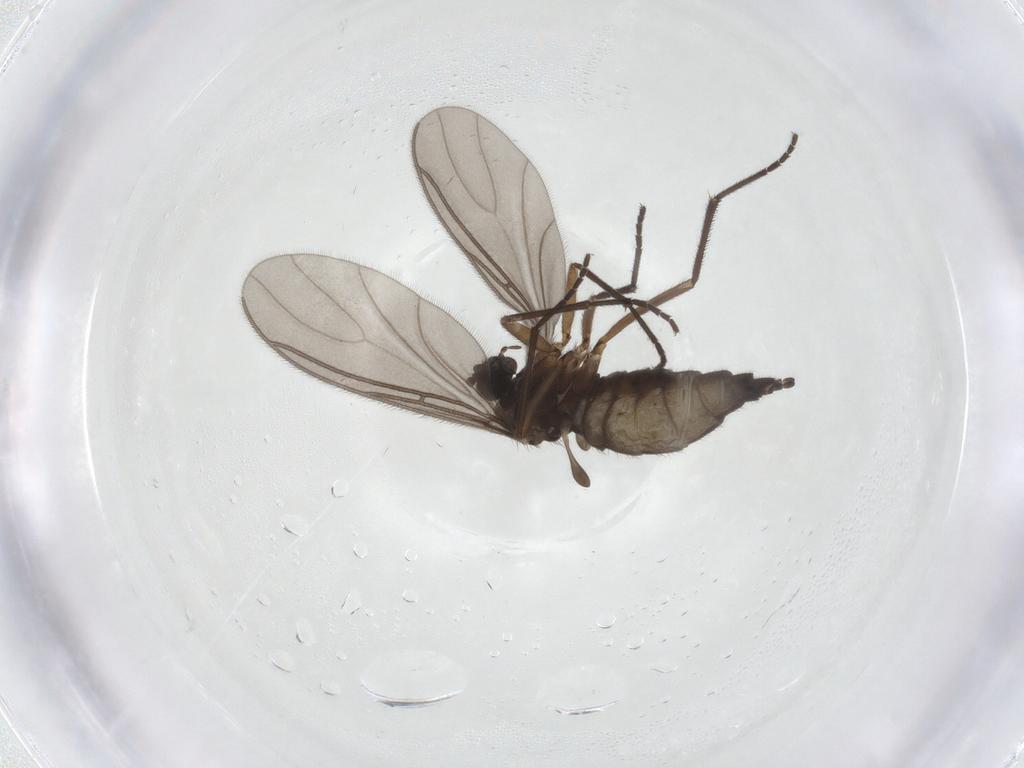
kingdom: Animalia
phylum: Arthropoda
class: Insecta
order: Diptera
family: Sciaridae
